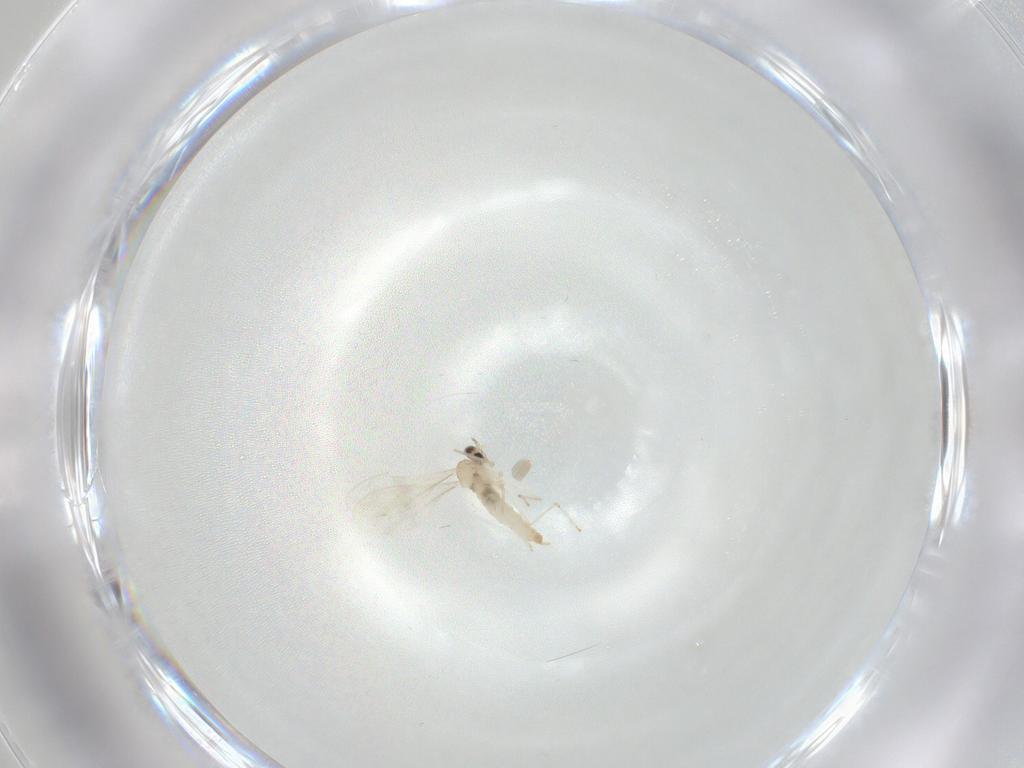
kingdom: Animalia
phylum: Arthropoda
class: Insecta
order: Diptera
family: Cecidomyiidae
